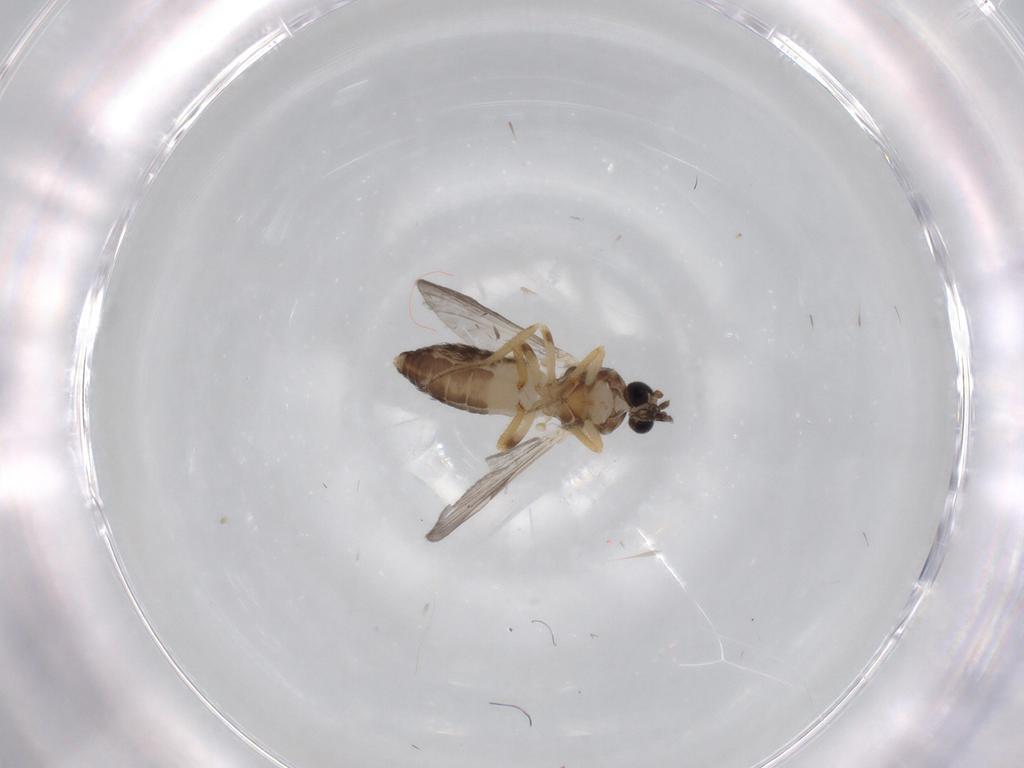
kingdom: Animalia
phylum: Arthropoda
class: Insecta
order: Diptera
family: Ceratopogonidae
